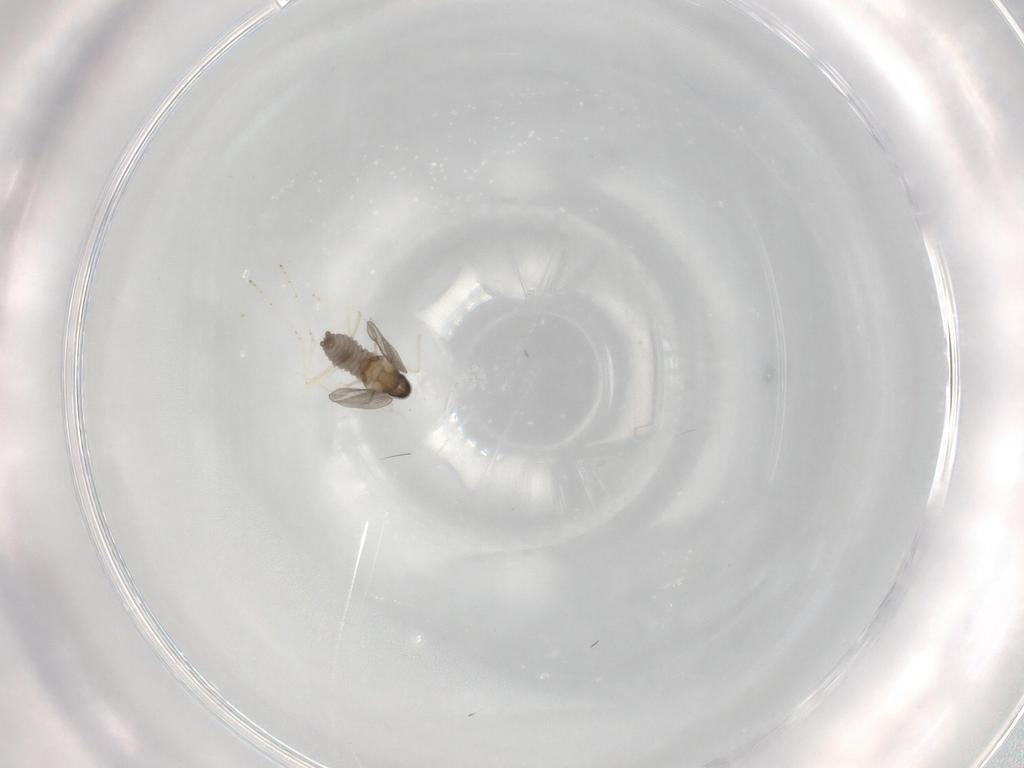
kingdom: Animalia
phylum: Arthropoda
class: Insecta
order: Diptera
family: Cecidomyiidae
